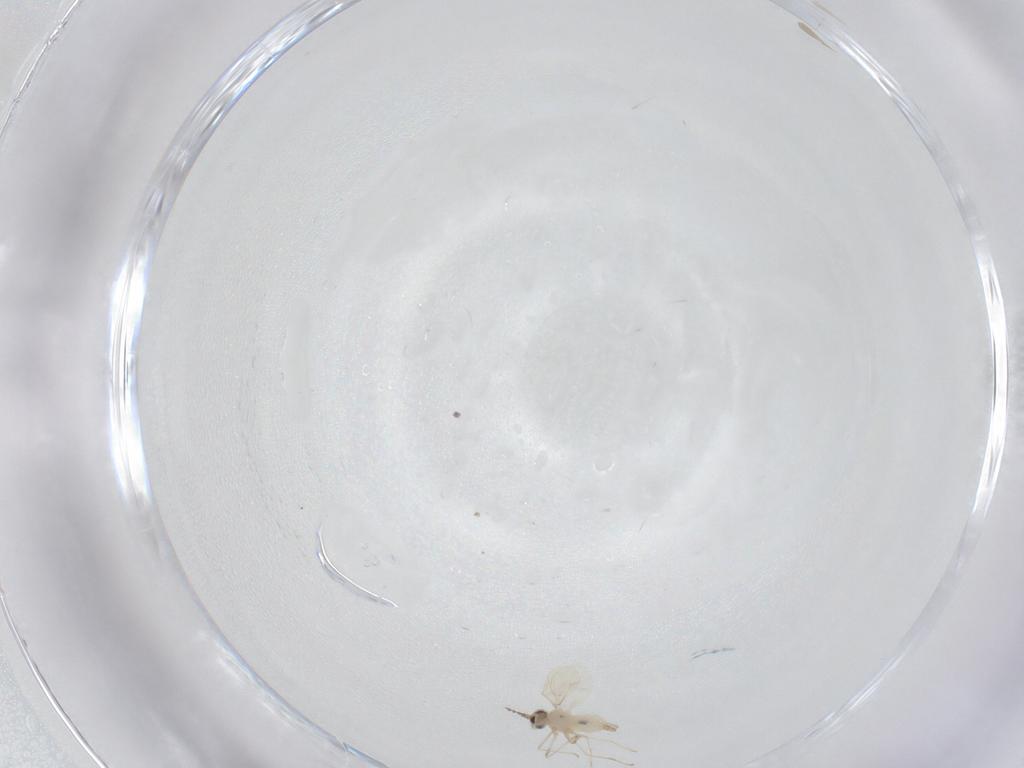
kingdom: Animalia
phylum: Arthropoda
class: Insecta
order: Diptera
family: Cecidomyiidae
